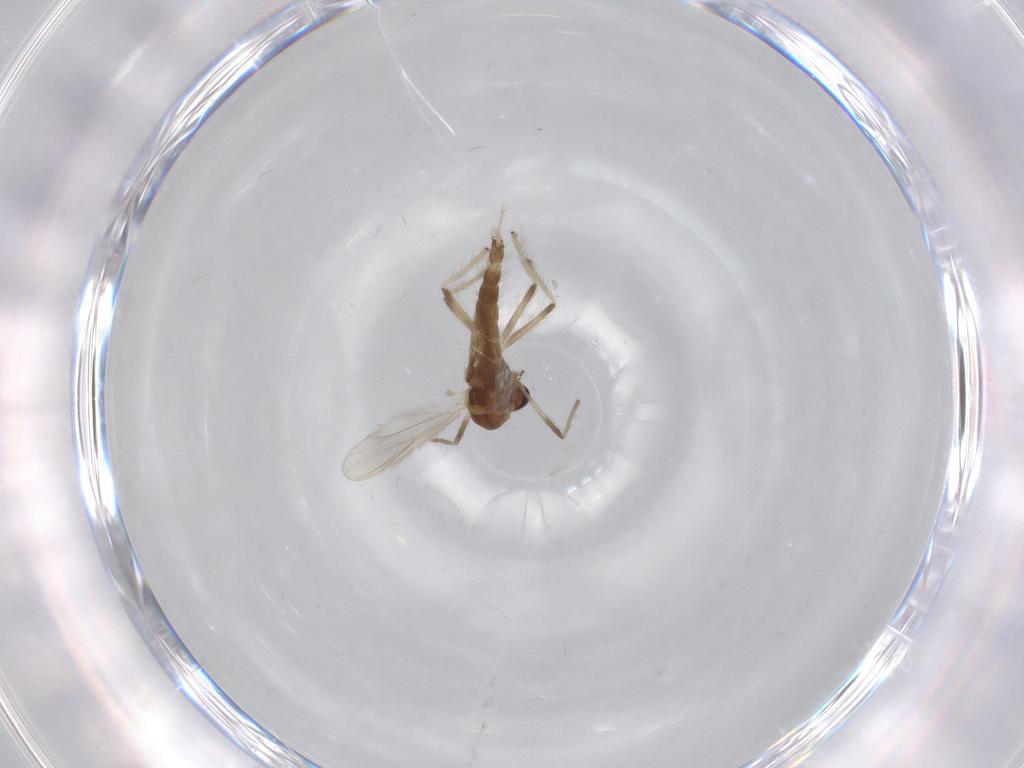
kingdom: Animalia
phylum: Arthropoda
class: Insecta
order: Diptera
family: Chironomidae
